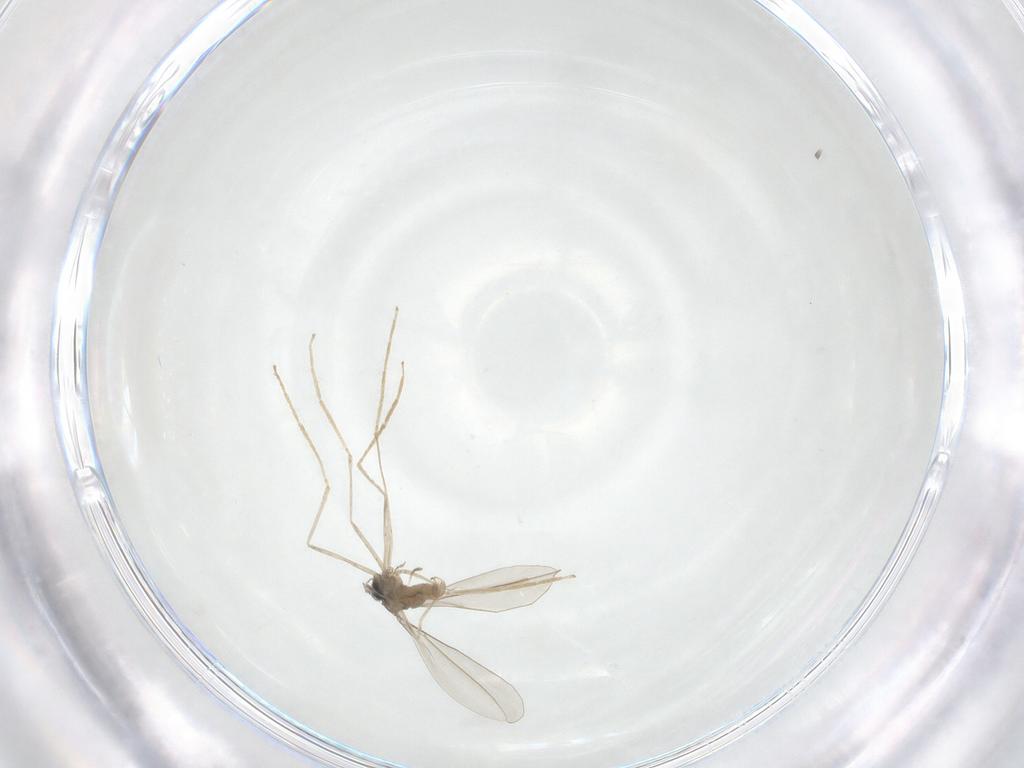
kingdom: Animalia
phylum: Arthropoda
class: Insecta
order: Diptera
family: Cecidomyiidae
